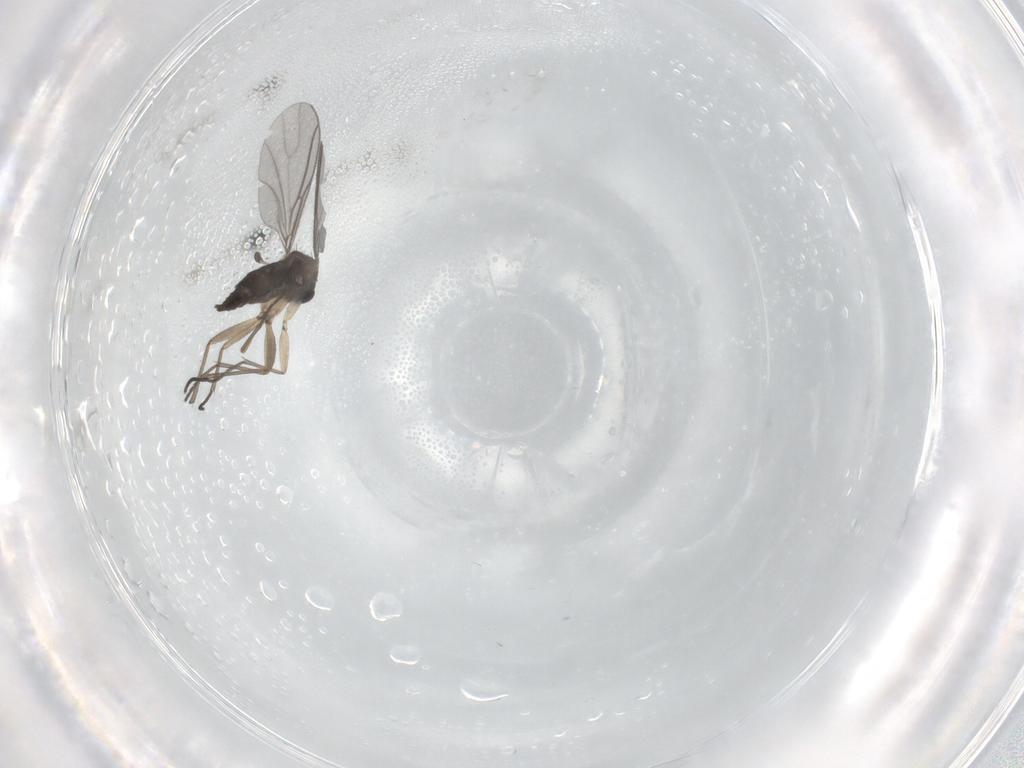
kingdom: Animalia
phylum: Arthropoda
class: Insecta
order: Diptera
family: Sciaridae
